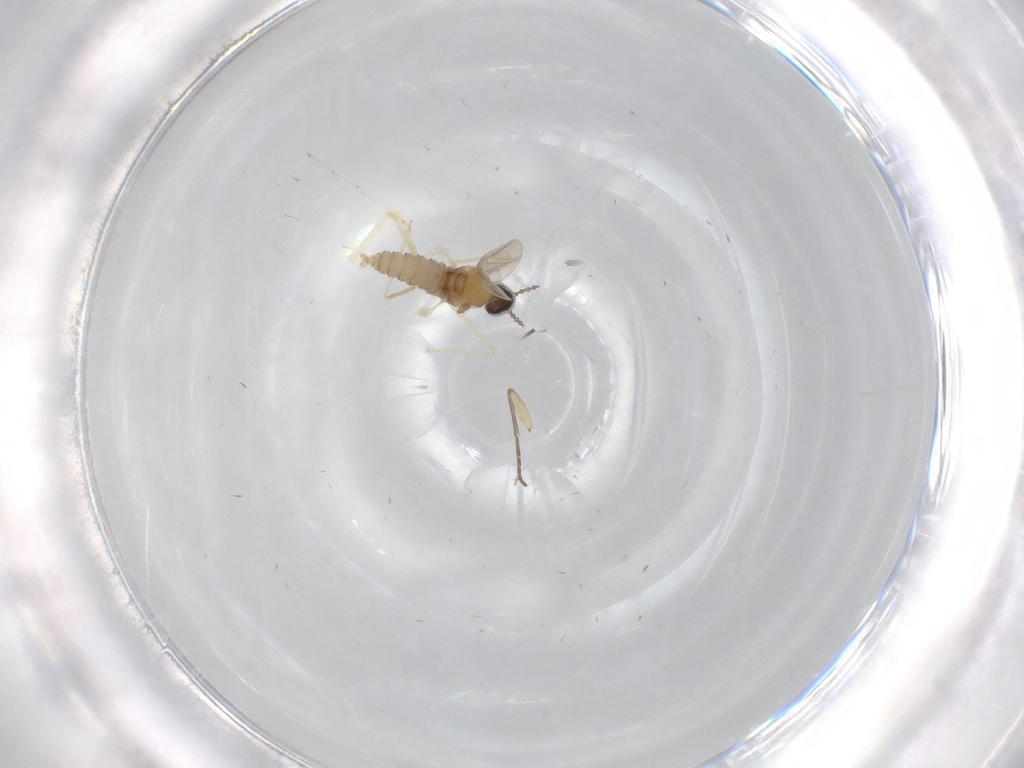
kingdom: Animalia
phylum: Arthropoda
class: Insecta
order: Diptera
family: Cecidomyiidae
